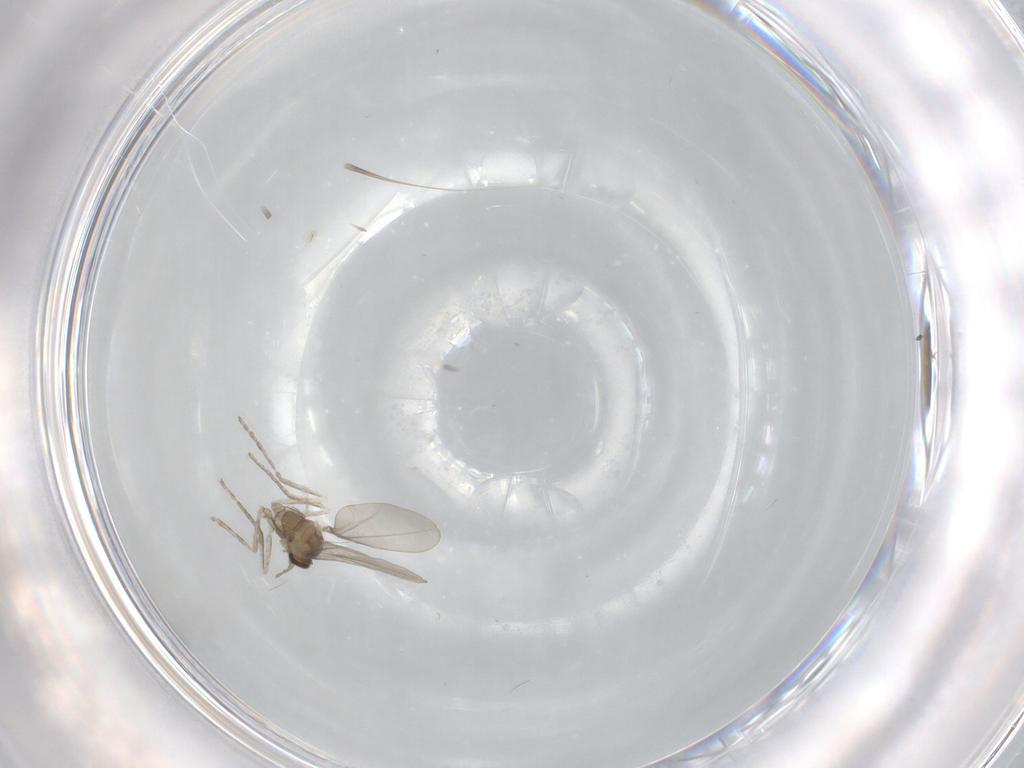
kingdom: Animalia
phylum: Arthropoda
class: Insecta
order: Diptera
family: Cecidomyiidae
